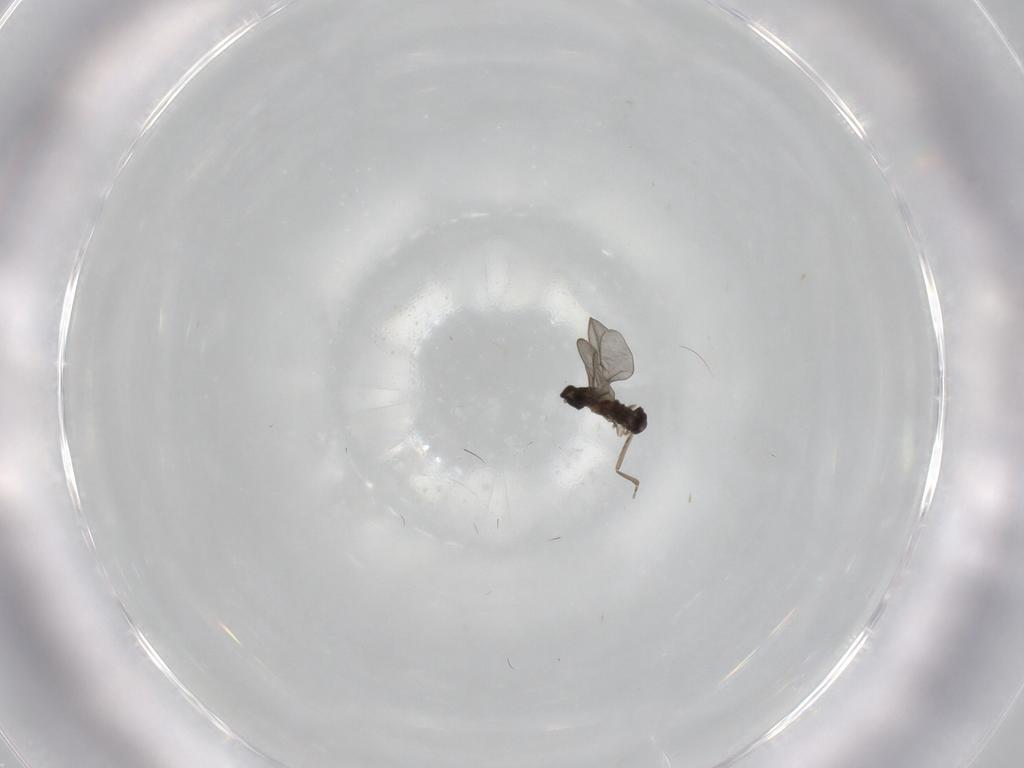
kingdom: Animalia
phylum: Arthropoda
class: Insecta
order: Diptera
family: Cecidomyiidae
